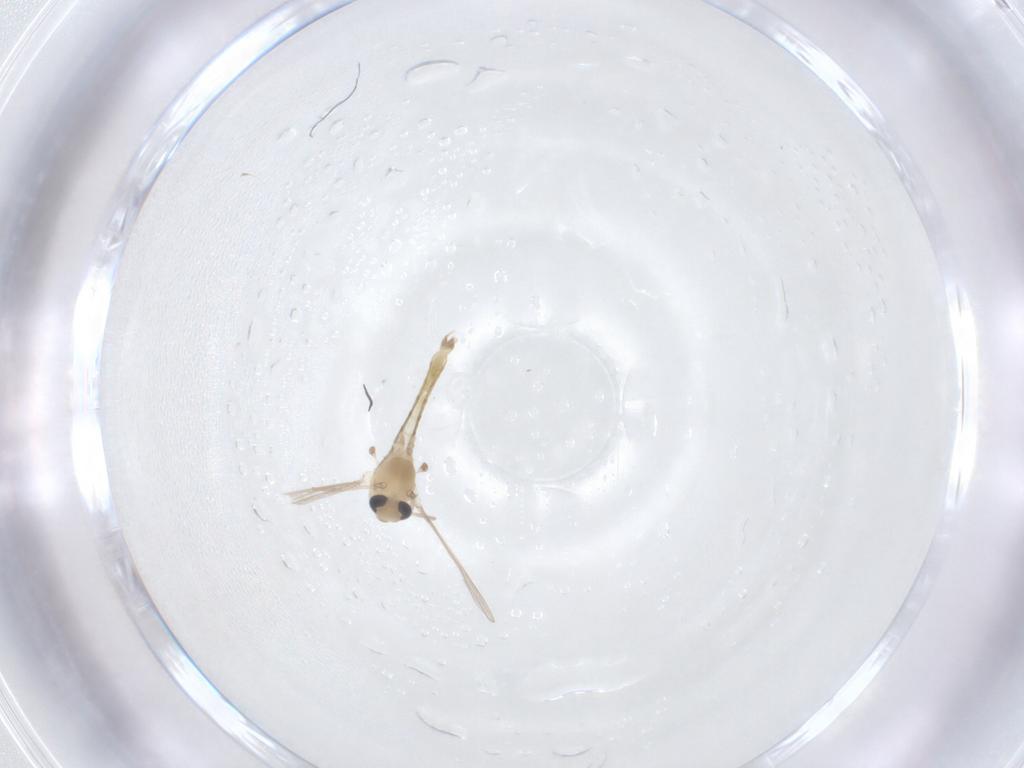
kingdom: Animalia
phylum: Arthropoda
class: Insecta
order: Diptera
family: Chironomidae
